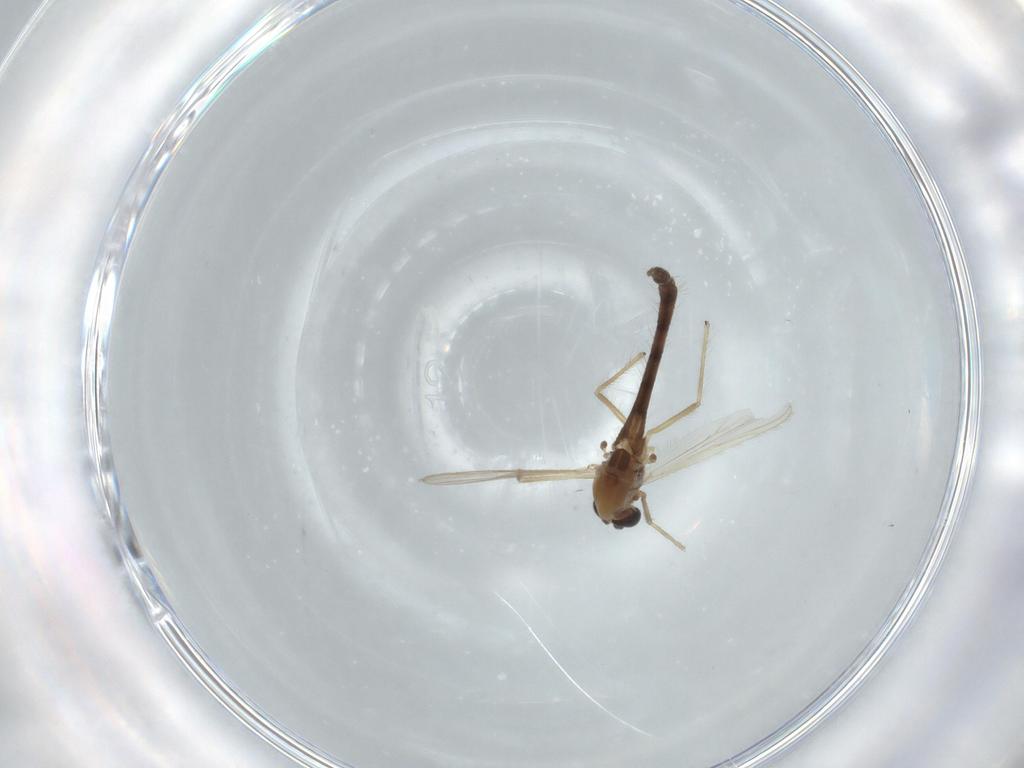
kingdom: Animalia
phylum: Arthropoda
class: Insecta
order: Diptera
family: Chironomidae
